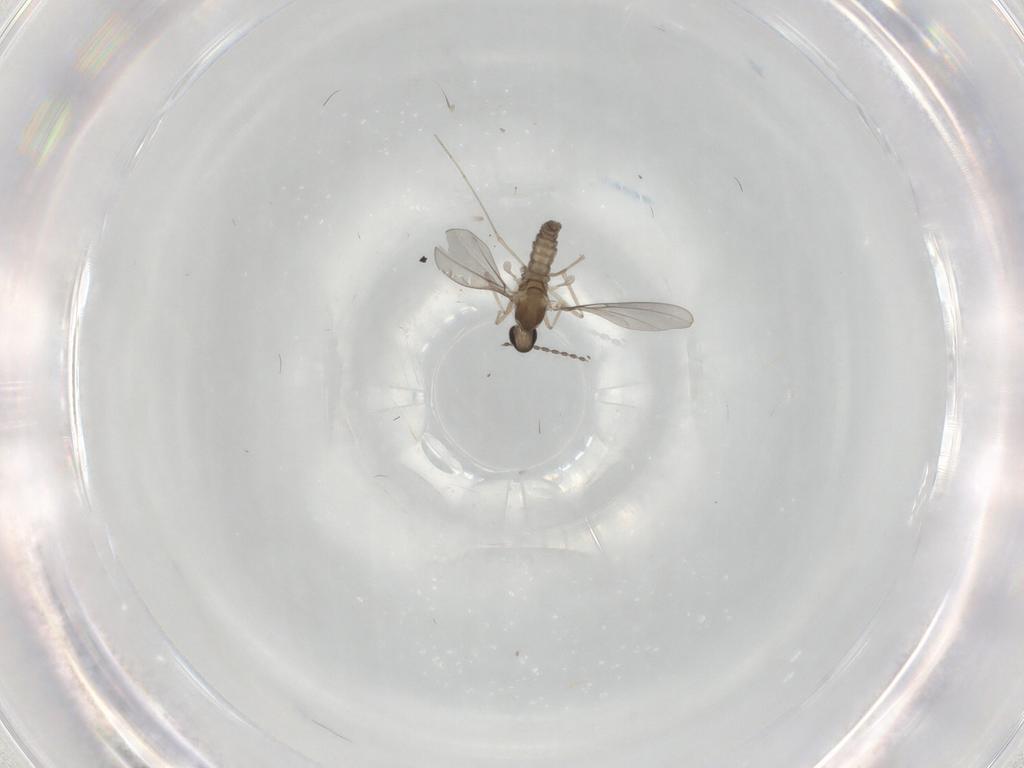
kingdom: Animalia
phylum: Arthropoda
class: Insecta
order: Diptera
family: Cecidomyiidae
